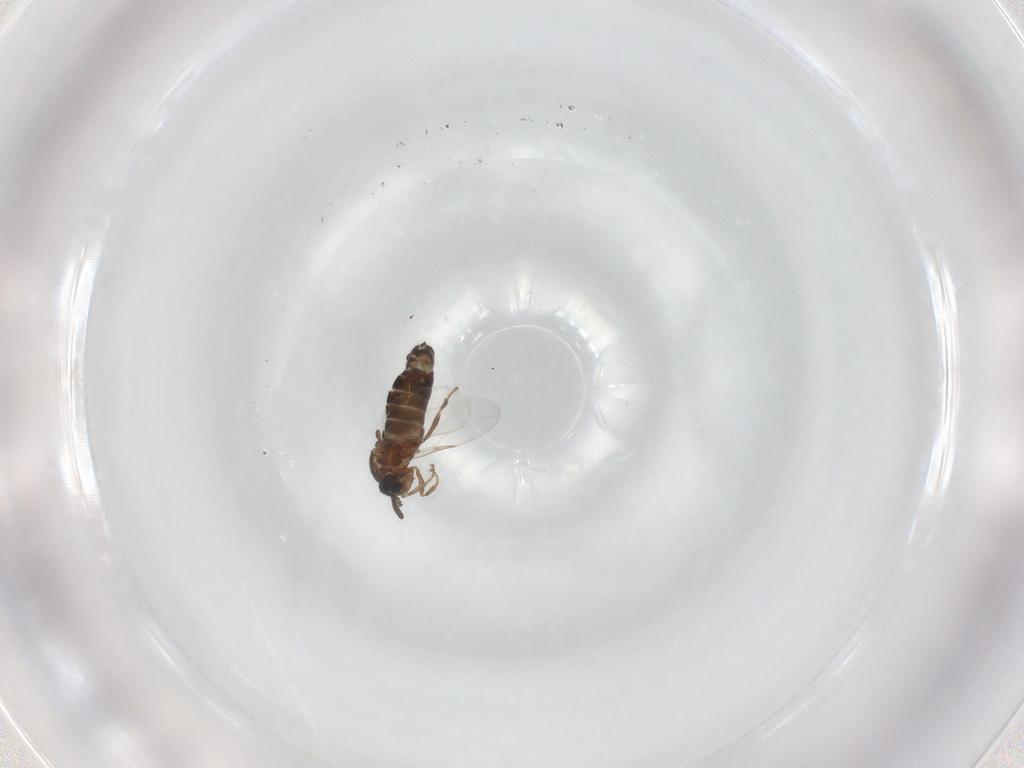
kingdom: Animalia
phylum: Arthropoda
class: Insecta
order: Diptera
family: Scatopsidae
